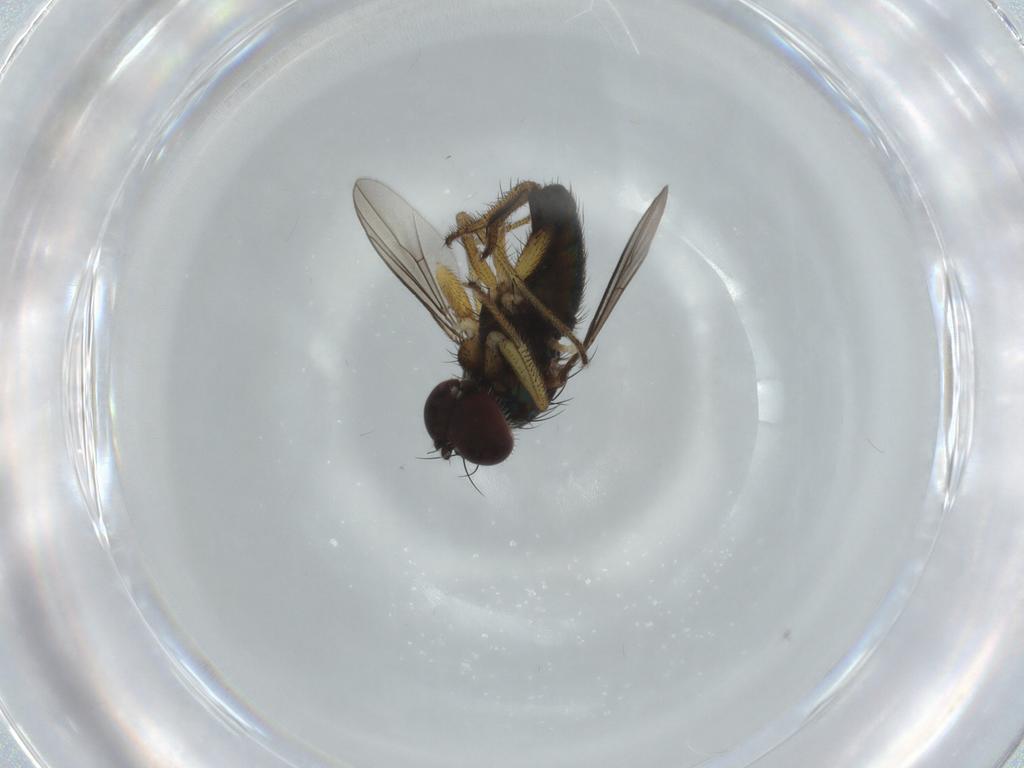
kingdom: Animalia
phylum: Arthropoda
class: Insecta
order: Diptera
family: Dolichopodidae
